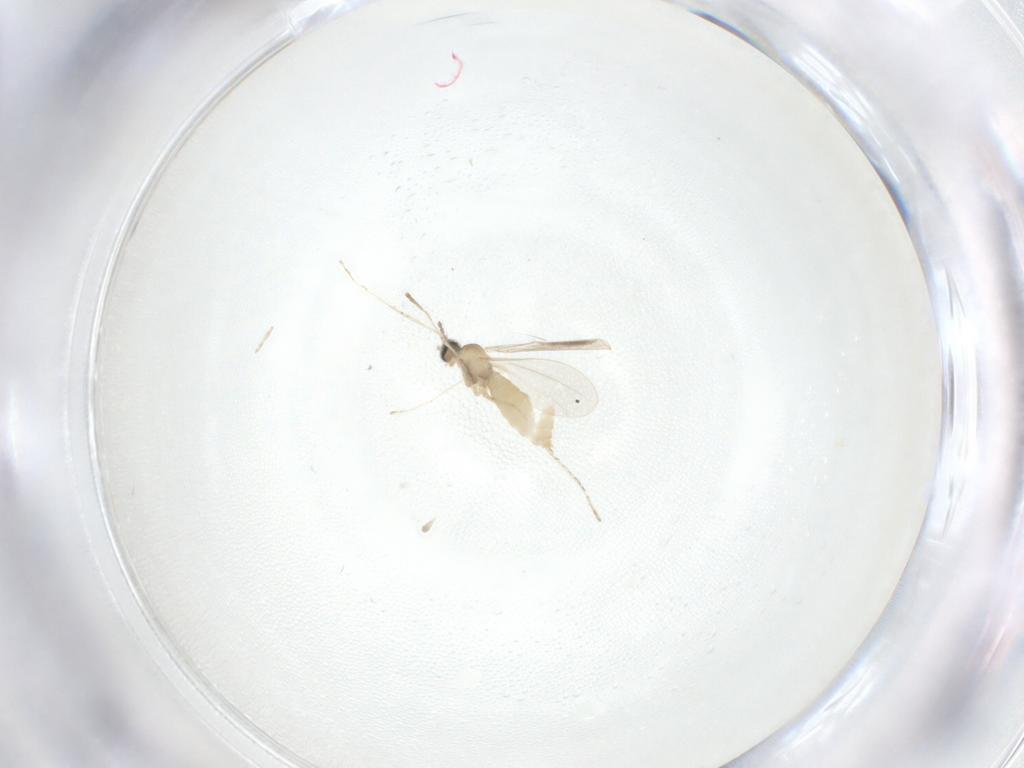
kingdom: Animalia
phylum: Arthropoda
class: Insecta
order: Diptera
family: Cecidomyiidae
